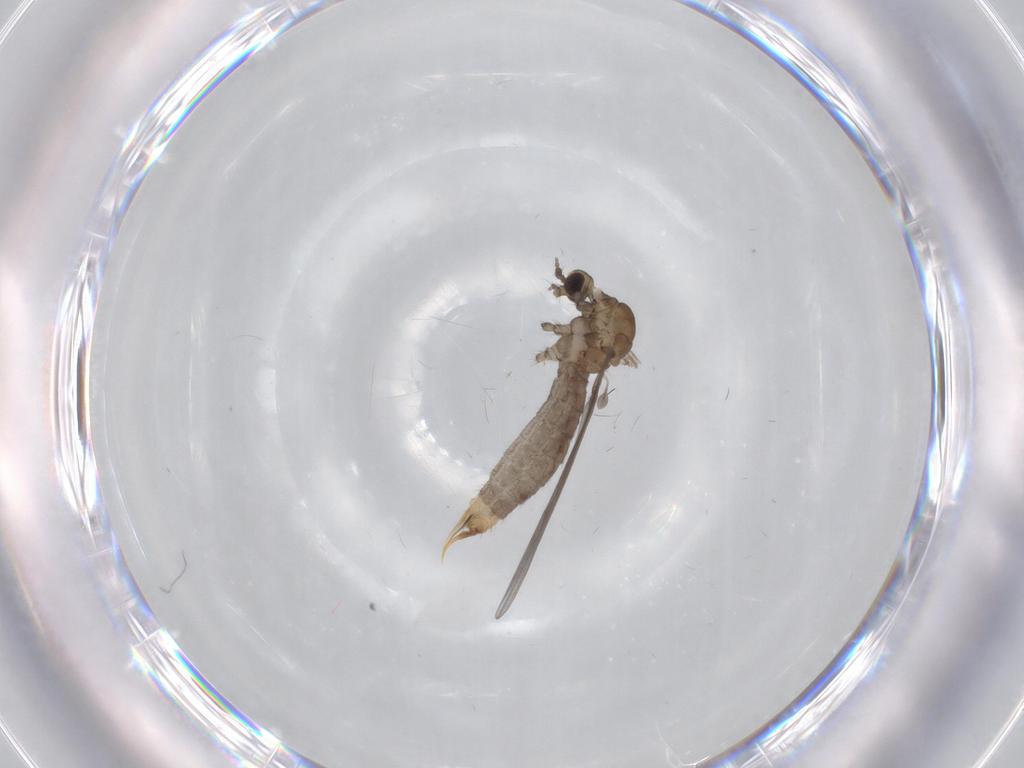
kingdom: Animalia
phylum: Arthropoda
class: Insecta
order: Diptera
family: Limoniidae
